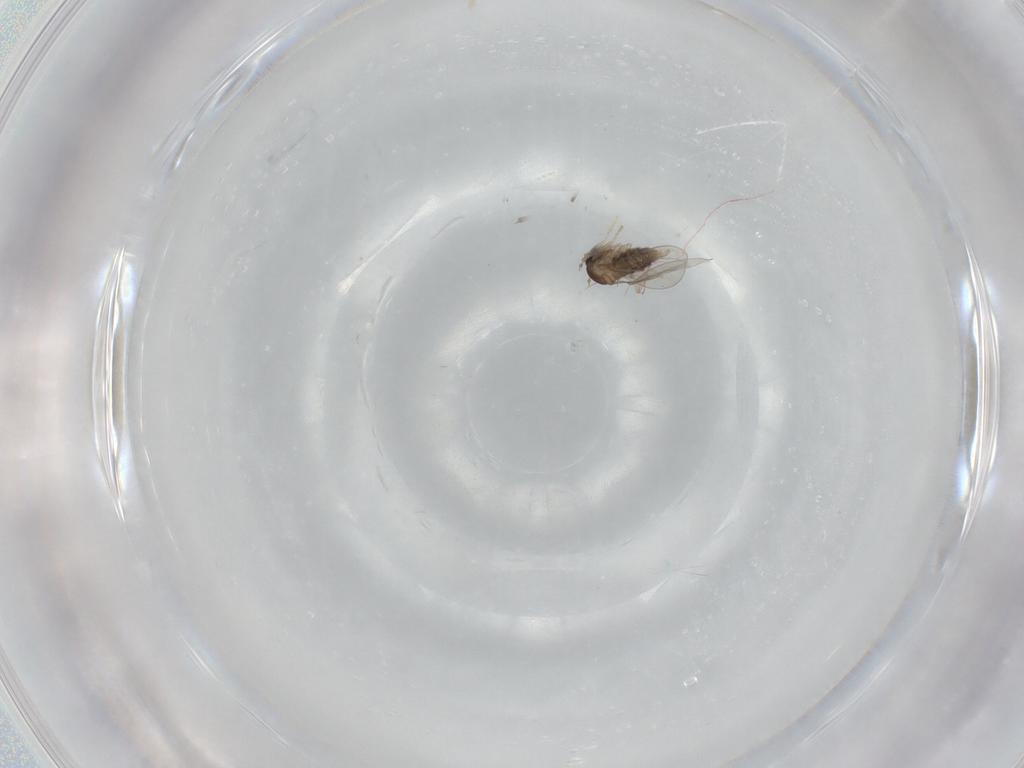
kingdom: Animalia
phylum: Arthropoda
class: Insecta
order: Diptera
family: Cecidomyiidae
